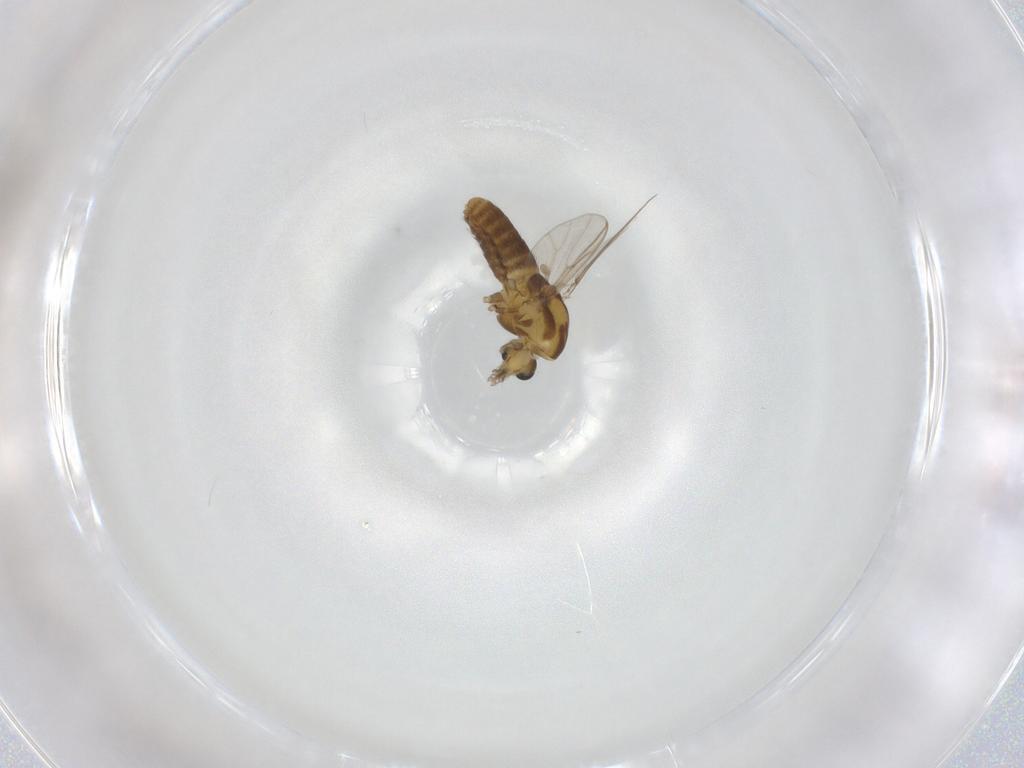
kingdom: Animalia
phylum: Arthropoda
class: Insecta
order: Diptera
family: Chironomidae
